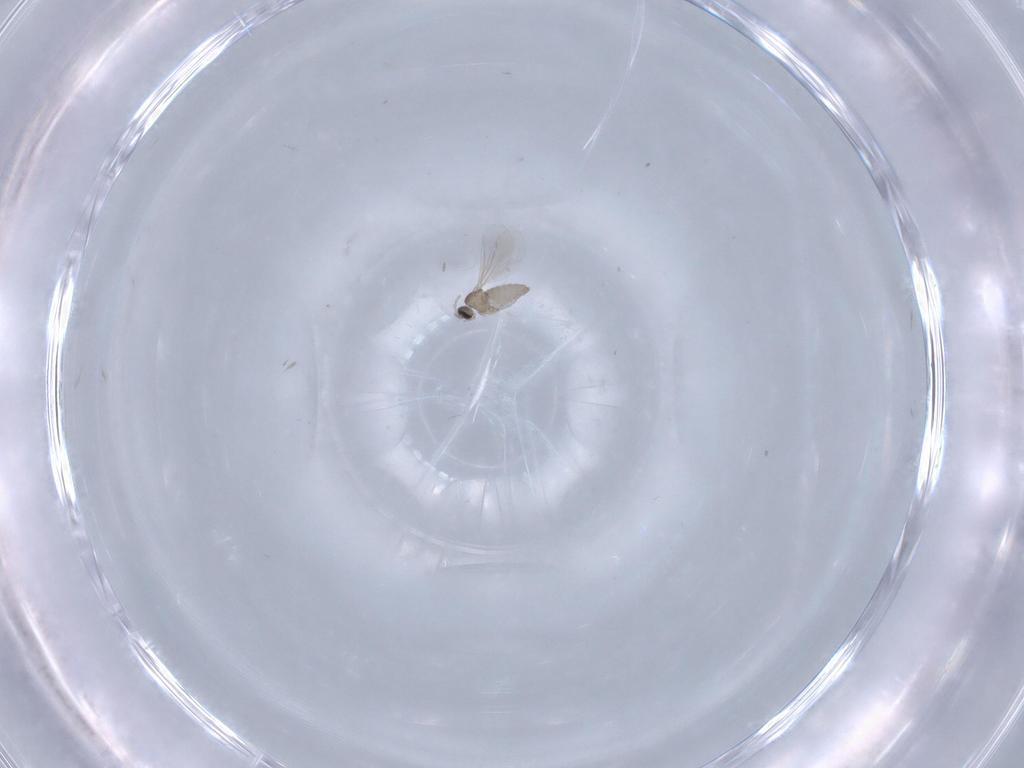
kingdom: Animalia
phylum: Arthropoda
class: Insecta
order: Diptera
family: Cecidomyiidae
